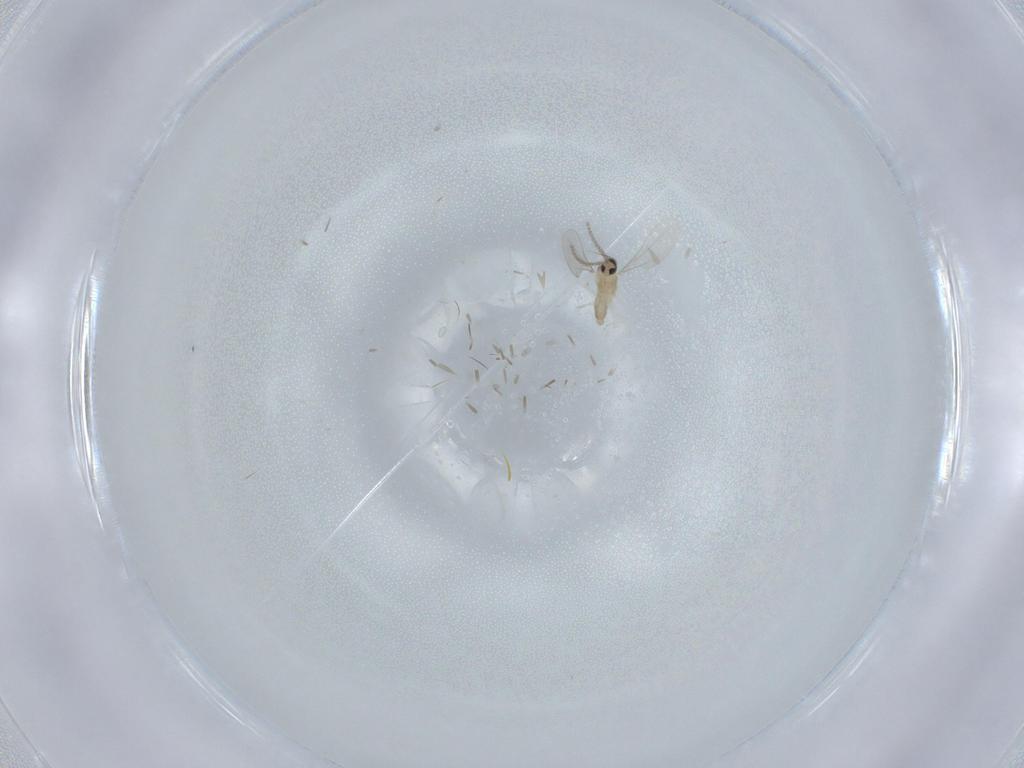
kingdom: Animalia
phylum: Arthropoda
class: Insecta
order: Diptera
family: Cecidomyiidae
